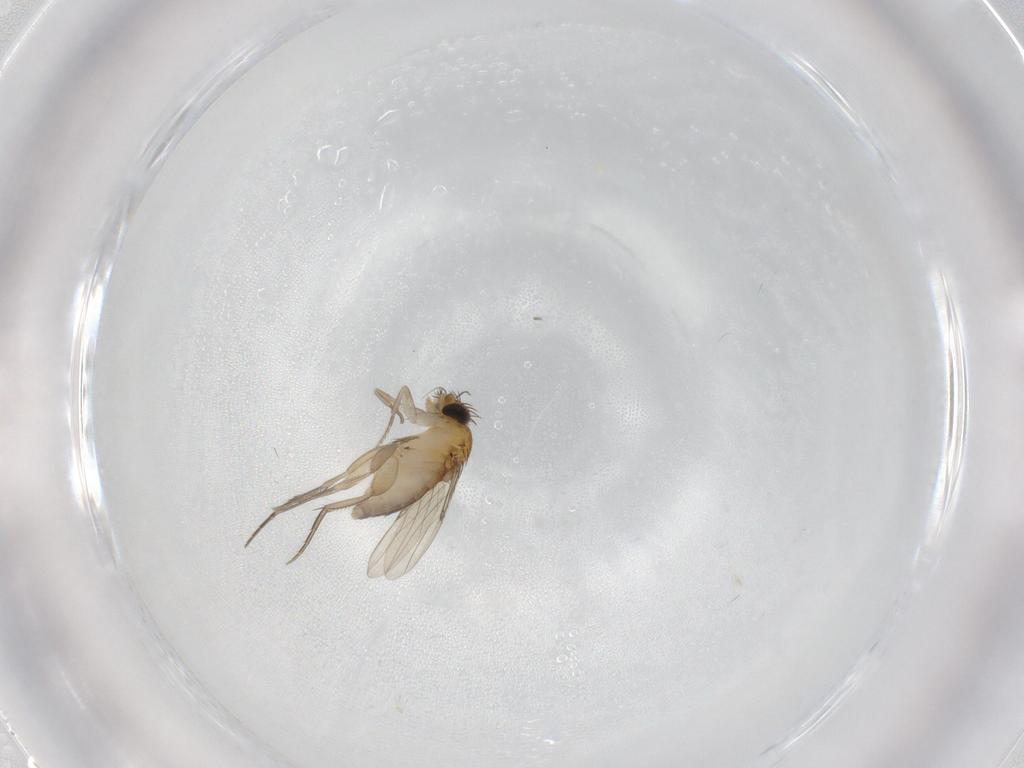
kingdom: Animalia
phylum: Arthropoda
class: Insecta
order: Diptera
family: Phoridae
